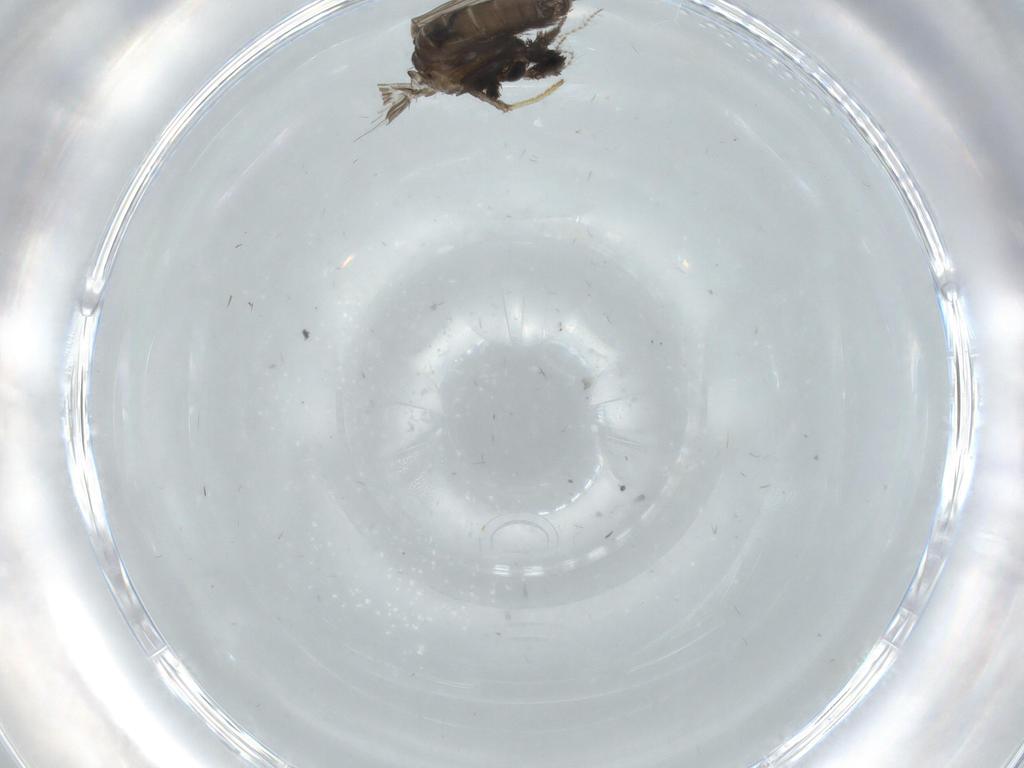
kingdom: Animalia
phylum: Arthropoda
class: Insecta
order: Diptera
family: Psychodidae
